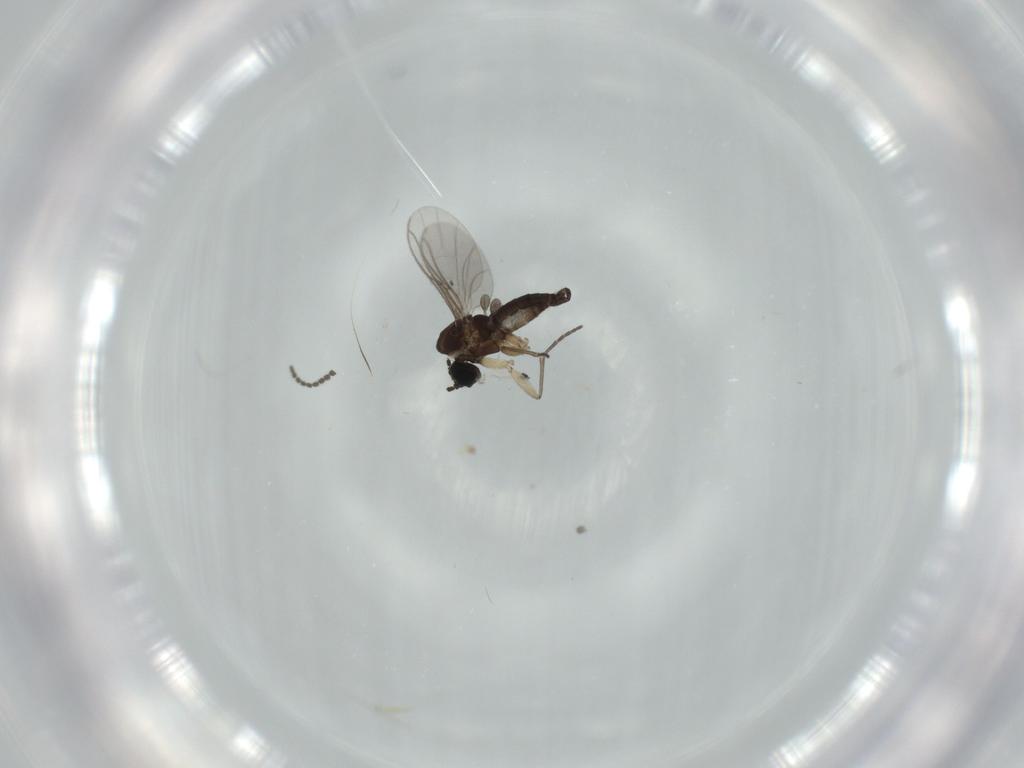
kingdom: Animalia
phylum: Arthropoda
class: Insecta
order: Diptera
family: Sciaridae
